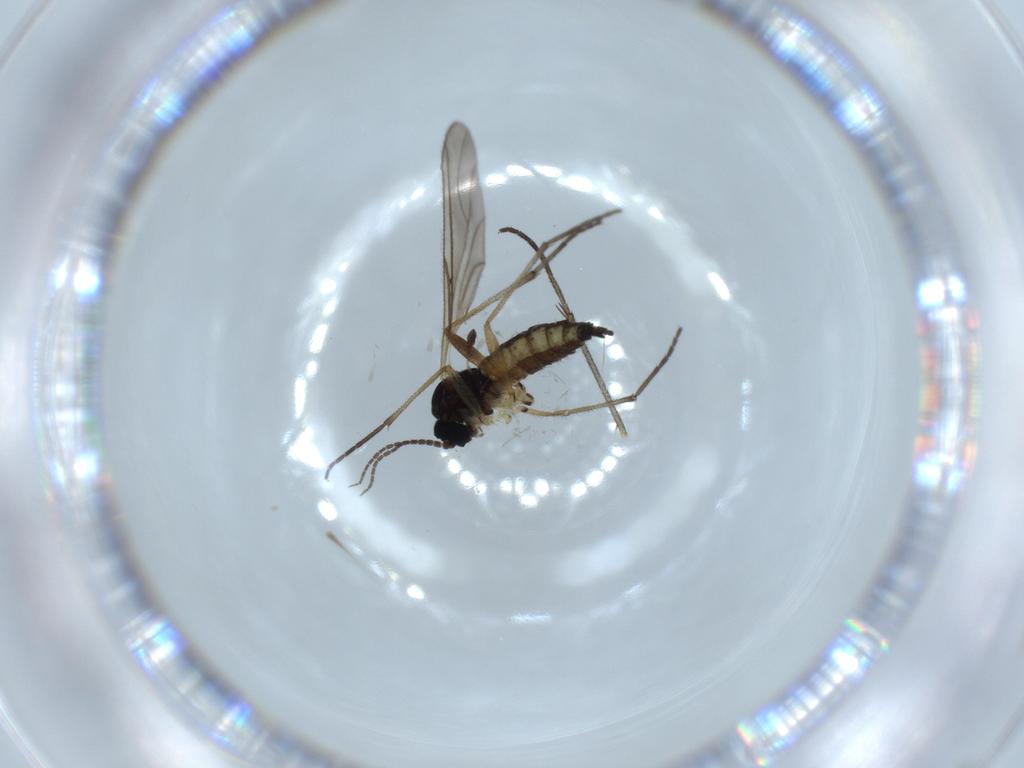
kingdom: Animalia
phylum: Arthropoda
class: Insecta
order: Diptera
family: Sciaridae
